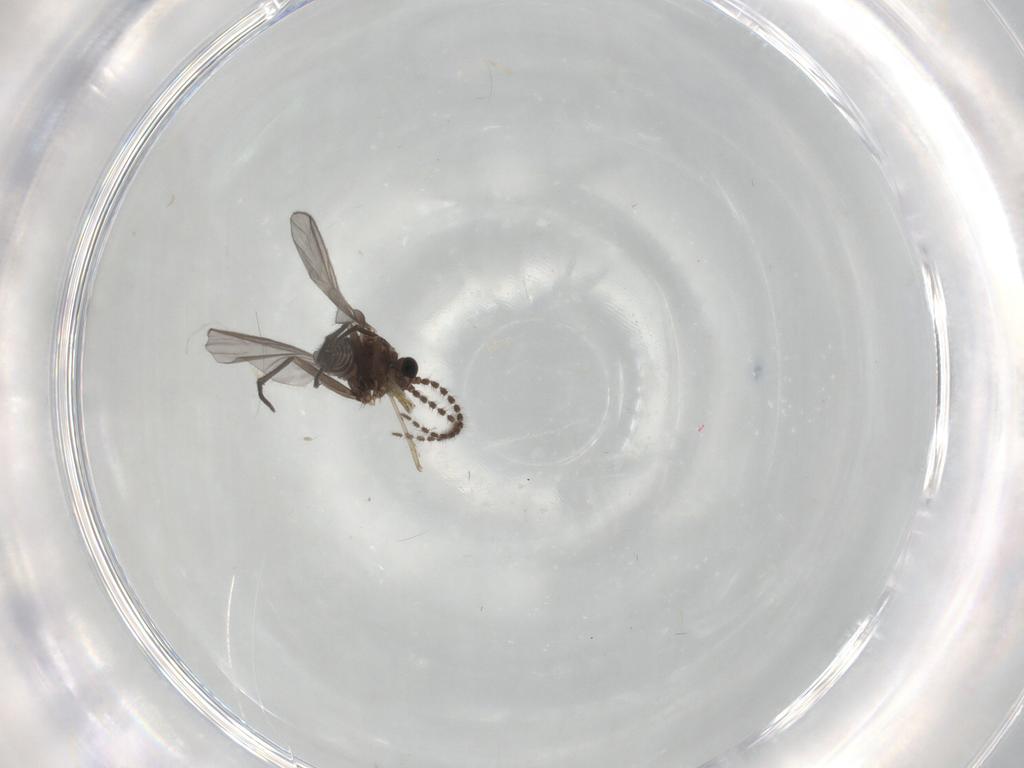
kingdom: Animalia
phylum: Arthropoda
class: Insecta
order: Diptera
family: Sciaridae
